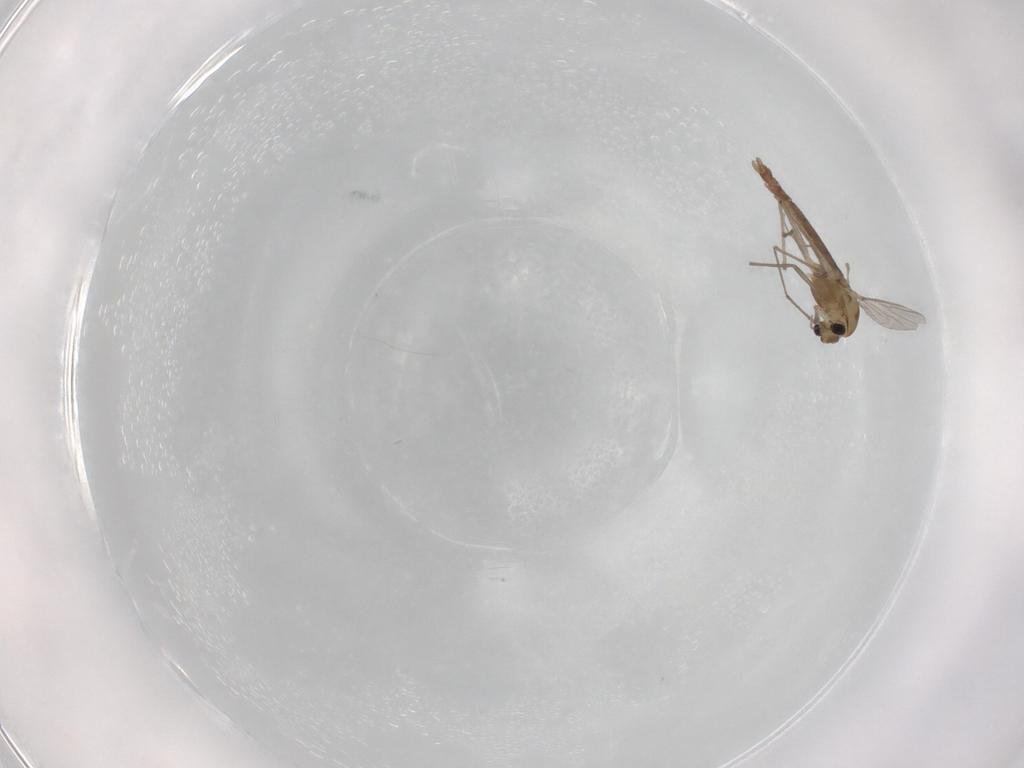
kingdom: Animalia
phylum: Arthropoda
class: Insecta
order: Diptera
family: Chironomidae
